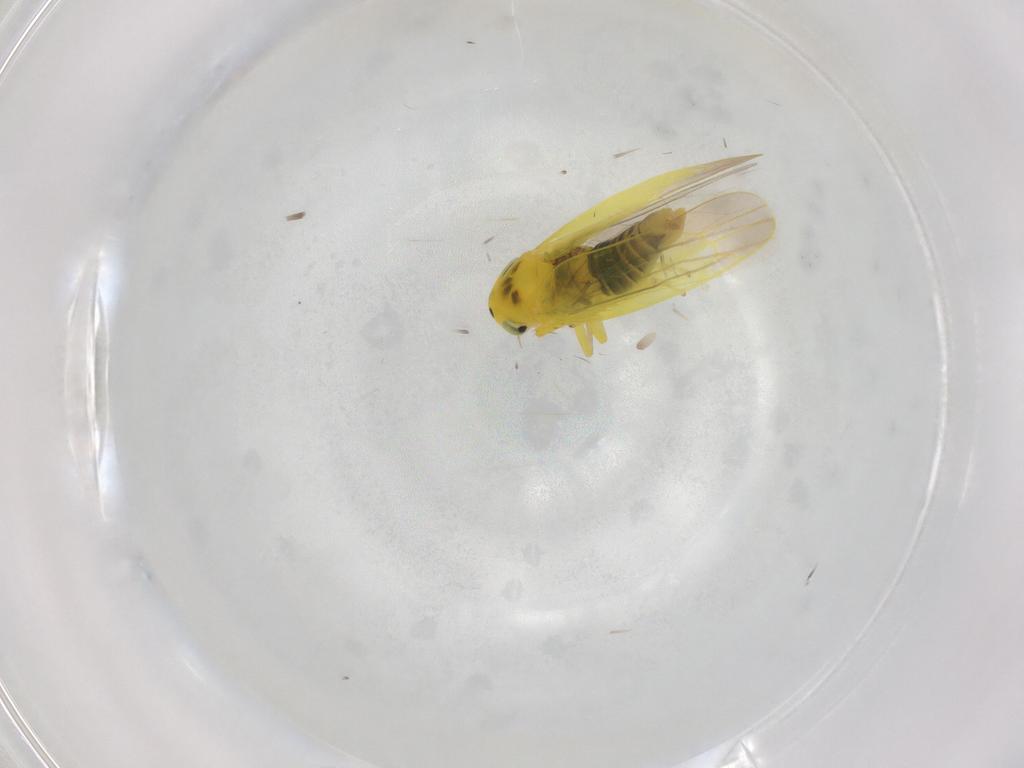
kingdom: Animalia
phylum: Arthropoda
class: Insecta
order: Hemiptera
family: Cicadellidae
